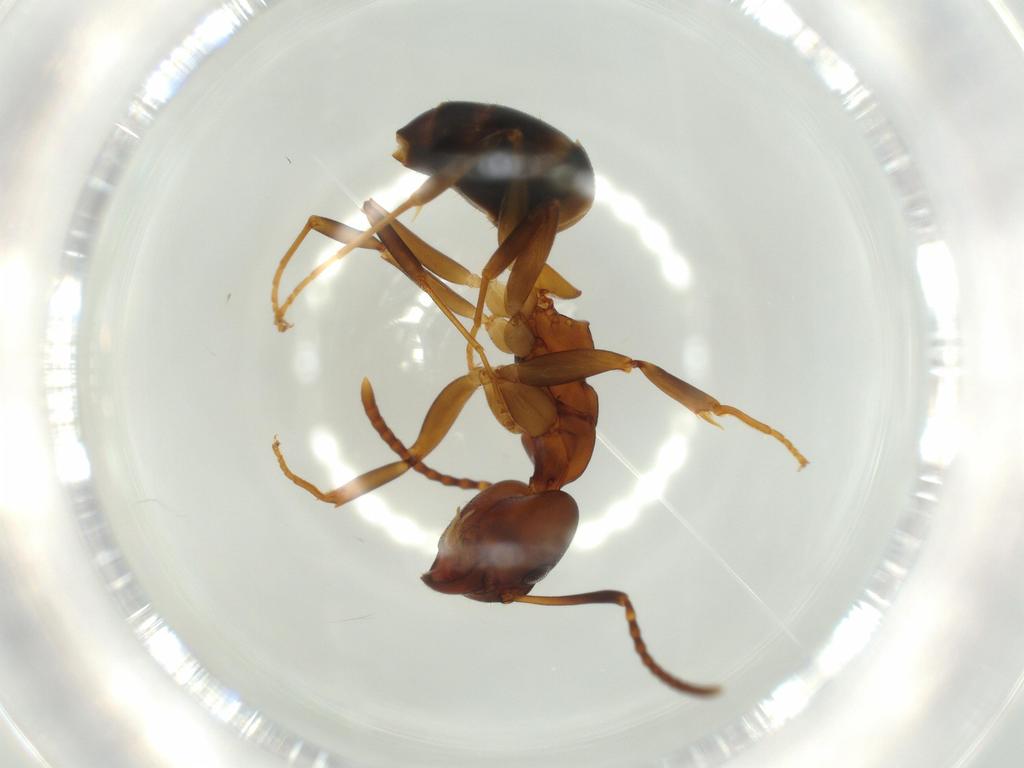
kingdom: Animalia
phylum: Arthropoda
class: Insecta
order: Hymenoptera
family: Formicidae
